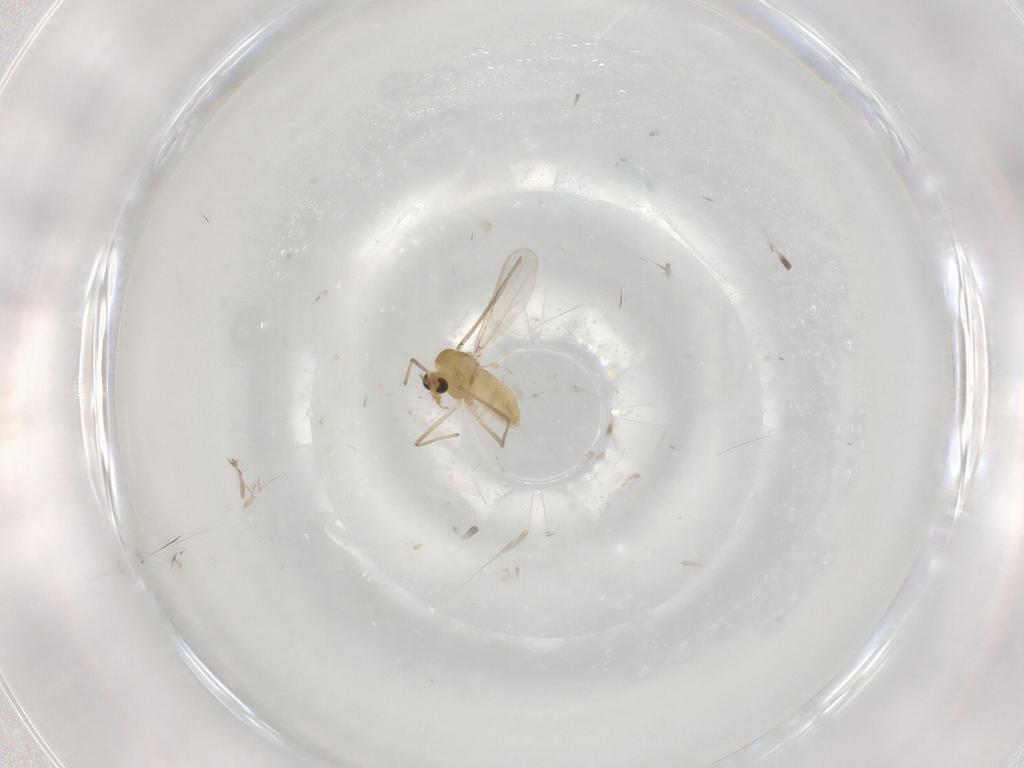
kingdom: Animalia
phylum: Arthropoda
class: Insecta
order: Diptera
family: Chironomidae
